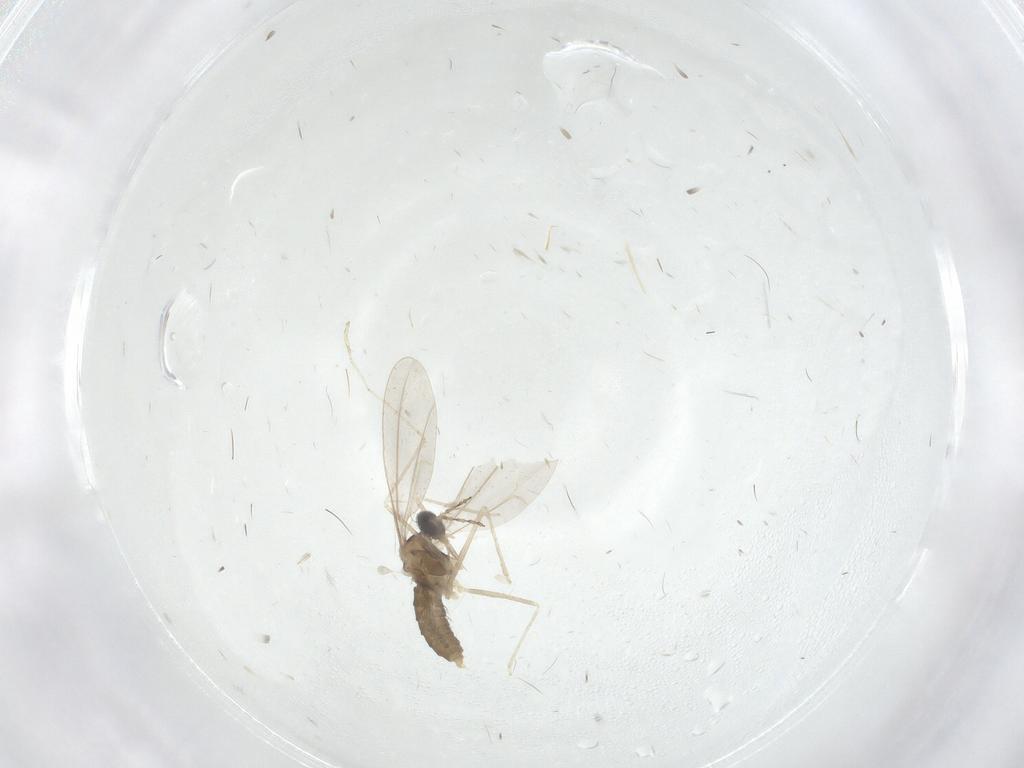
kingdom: Animalia
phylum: Arthropoda
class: Insecta
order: Diptera
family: Cecidomyiidae
